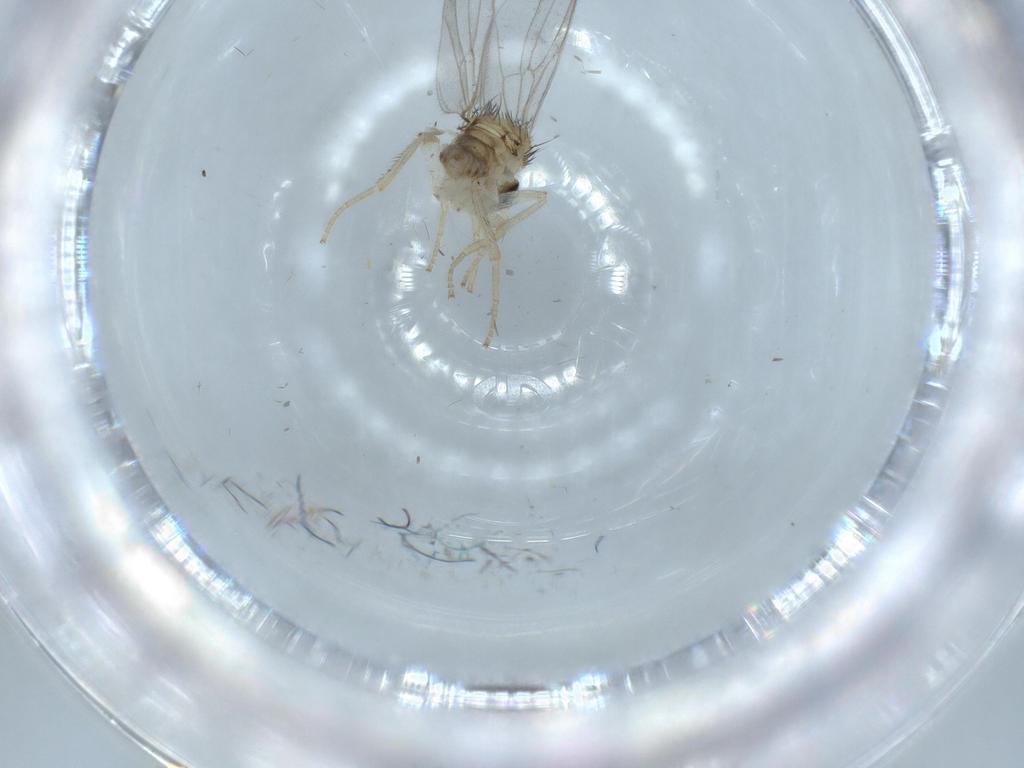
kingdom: Animalia
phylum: Arthropoda
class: Insecta
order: Diptera
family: Hybotidae
